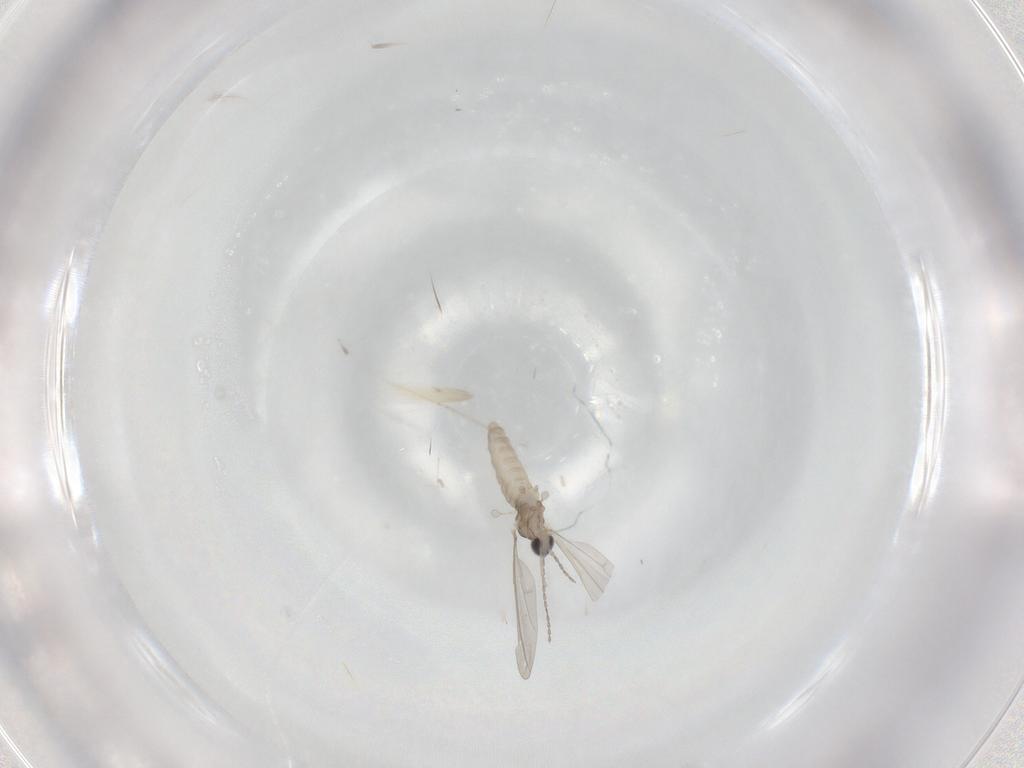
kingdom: Animalia
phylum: Arthropoda
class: Insecta
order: Diptera
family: Cecidomyiidae
